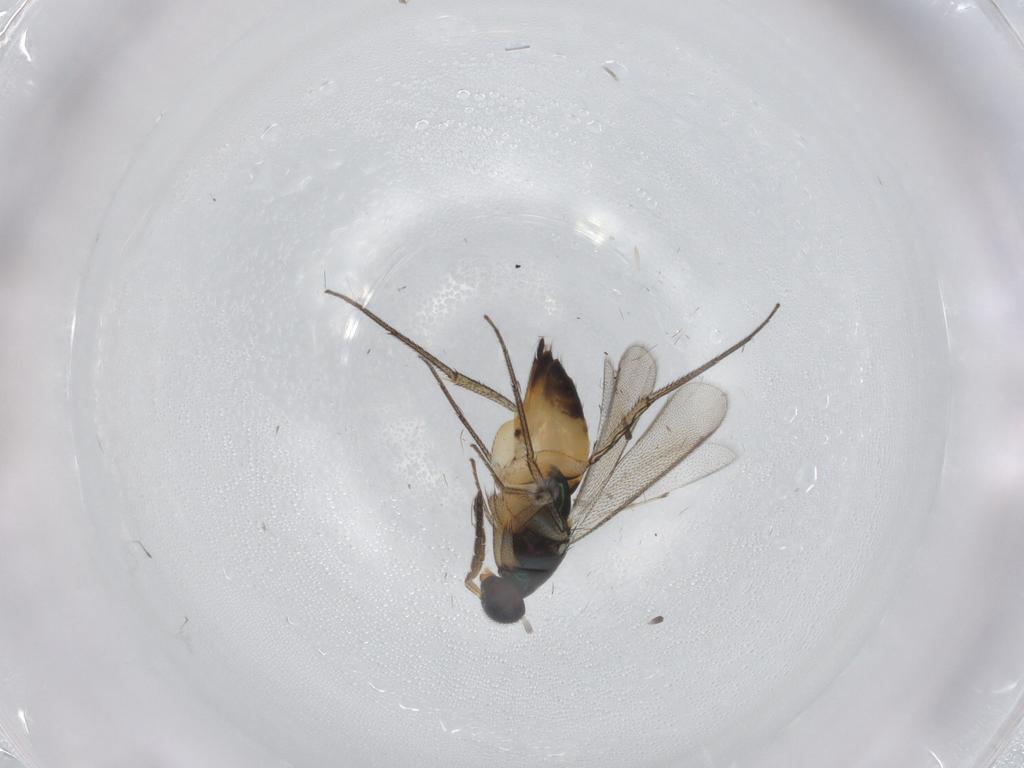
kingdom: Animalia
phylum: Arthropoda
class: Insecta
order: Hymenoptera
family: Eulophidae
